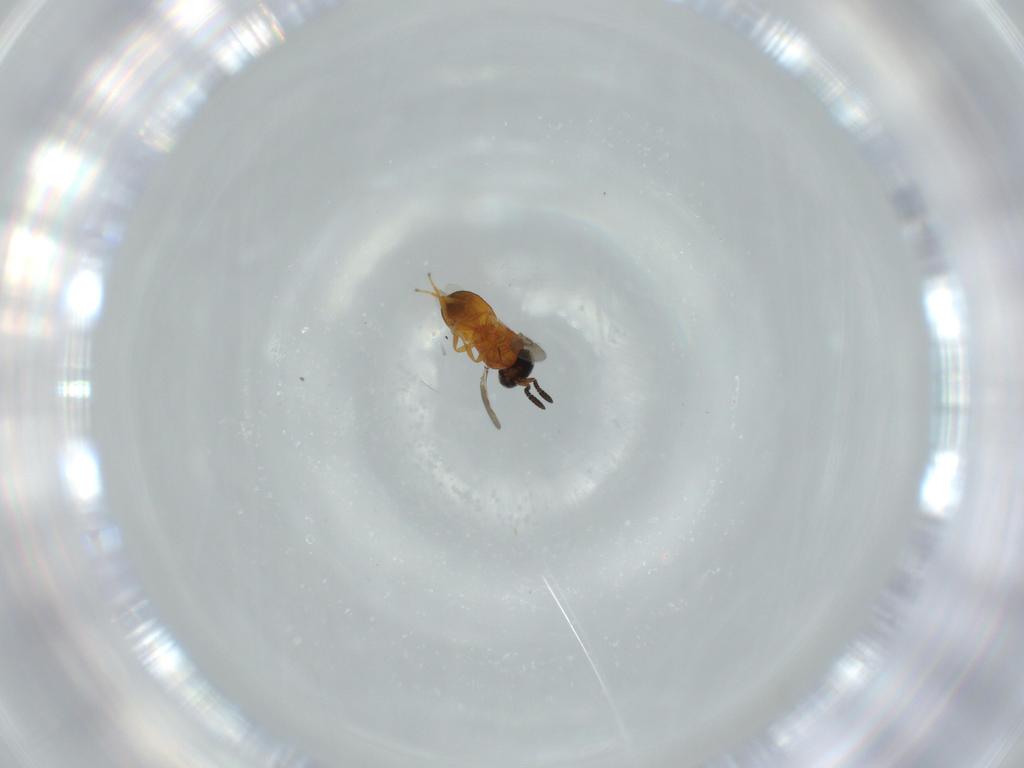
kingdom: Animalia
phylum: Arthropoda
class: Insecta
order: Hymenoptera
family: Scelionidae
